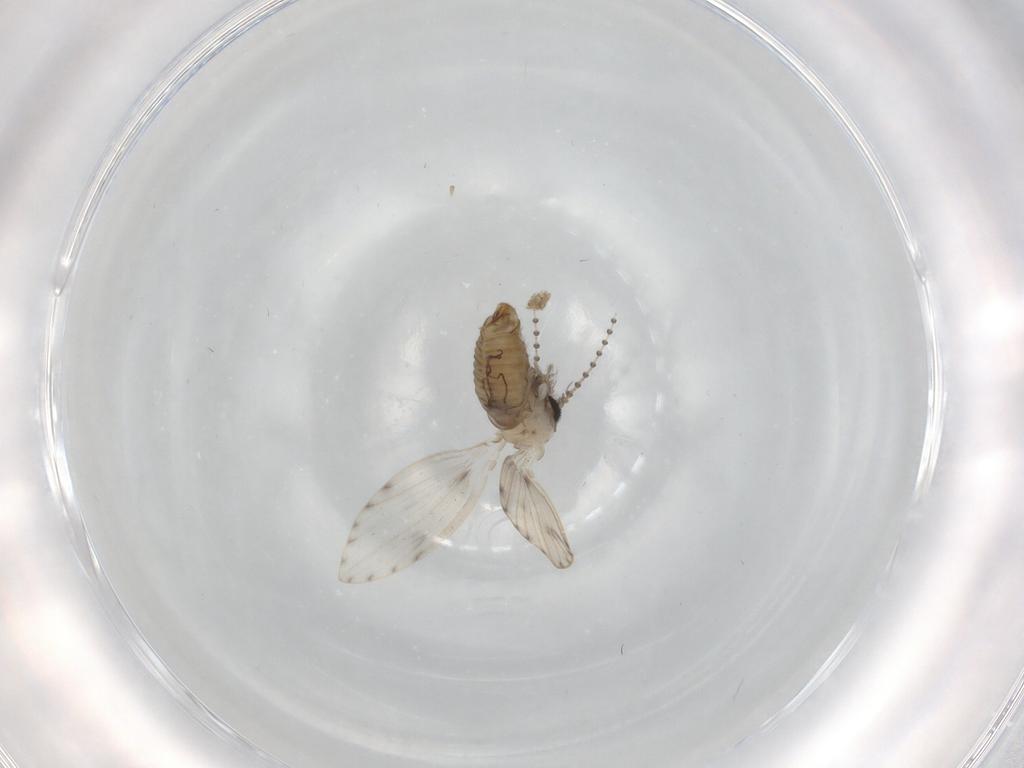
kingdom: Animalia
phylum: Arthropoda
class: Insecta
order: Diptera
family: Psychodidae
